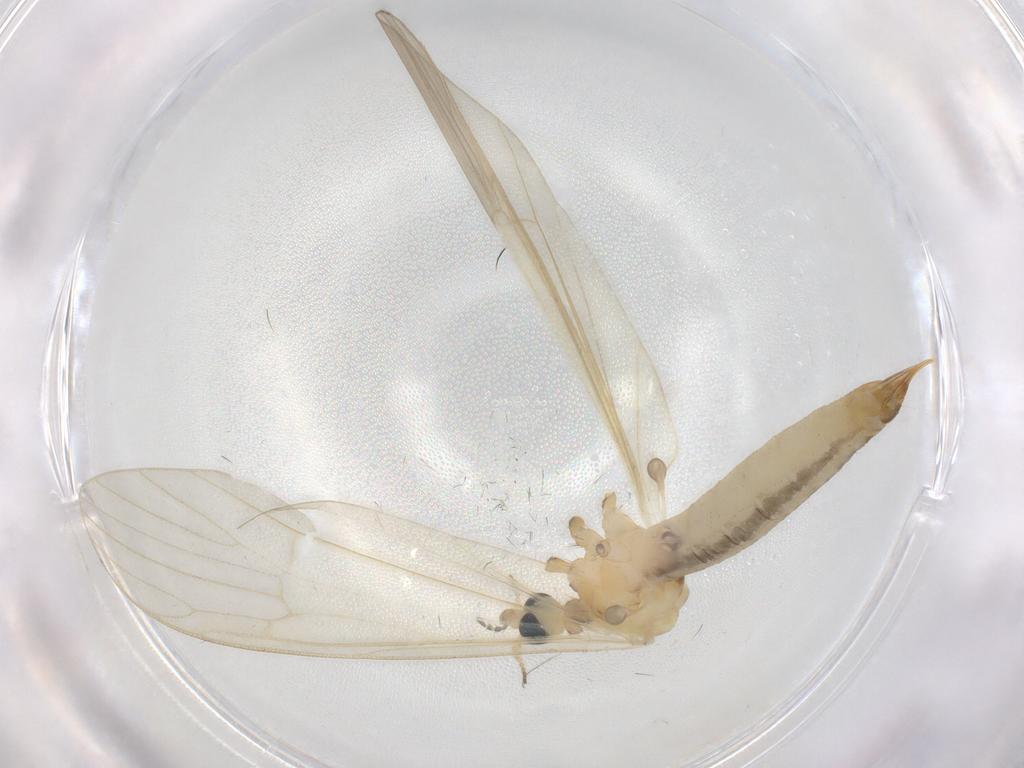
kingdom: Animalia
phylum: Arthropoda
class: Insecta
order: Diptera
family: Limoniidae
